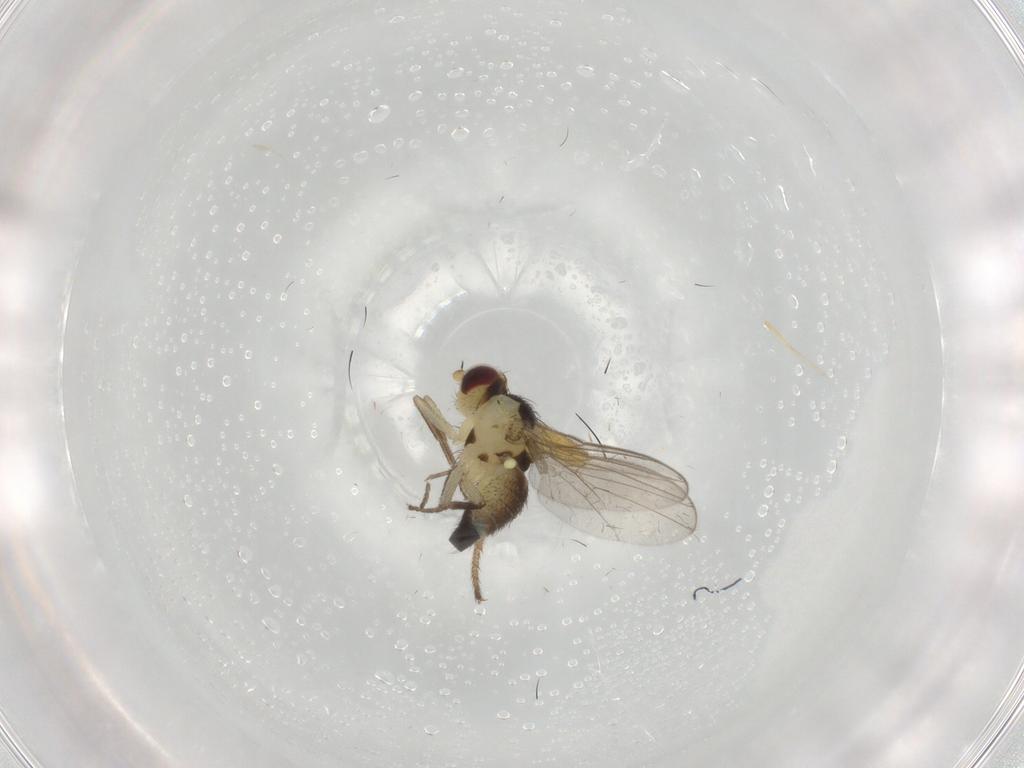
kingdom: Animalia
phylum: Arthropoda
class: Insecta
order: Diptera
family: Agromyzidae
